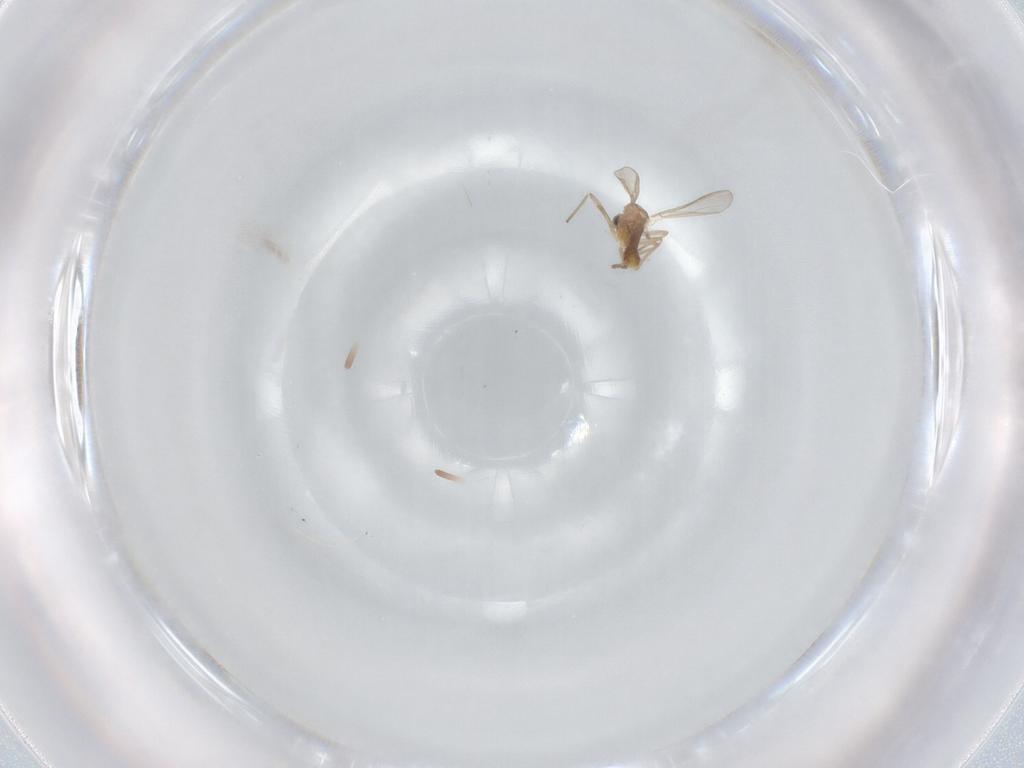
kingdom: Animalia
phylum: Arthropoda
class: Insecta
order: Diptera
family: Chironomidae
